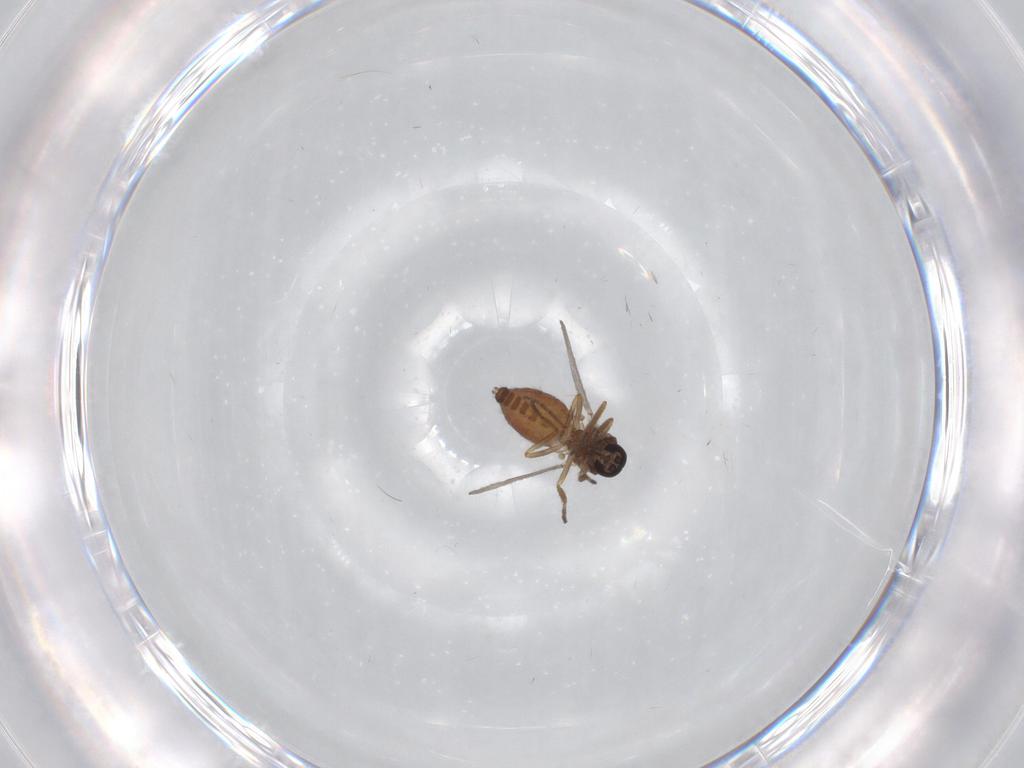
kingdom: Animalia
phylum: Arthropoda
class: Insecta
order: Diptera
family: Ceratopogonidae
